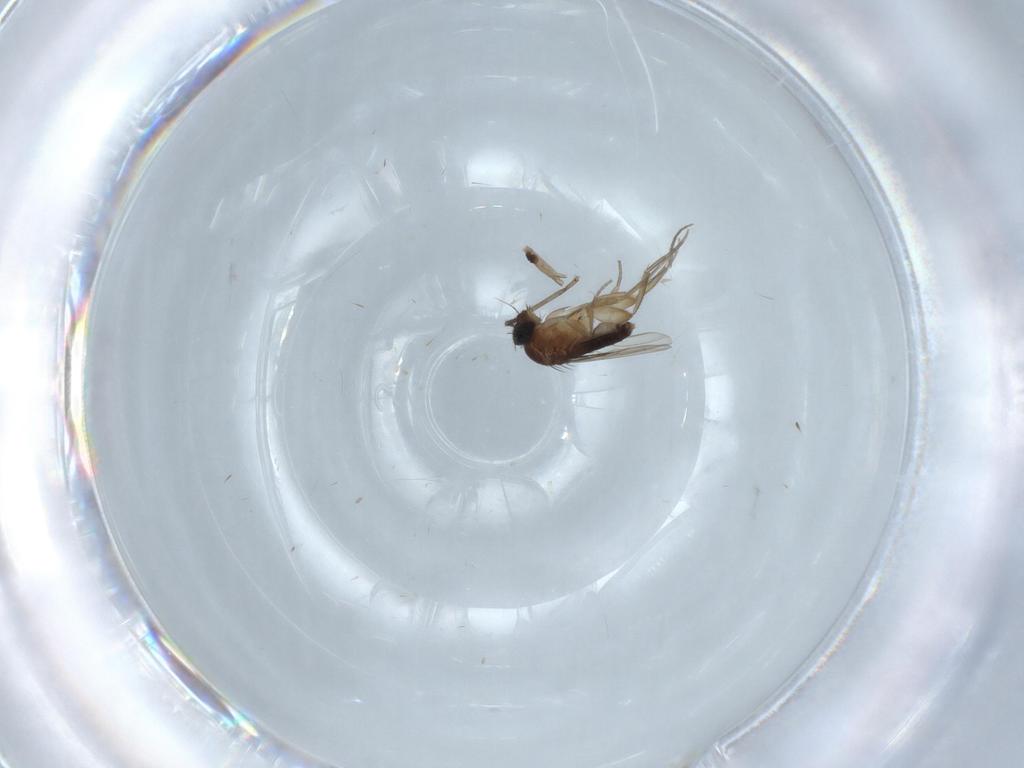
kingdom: Animalia
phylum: Arthropoda
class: Insecta
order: Diptera
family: Phoridae
